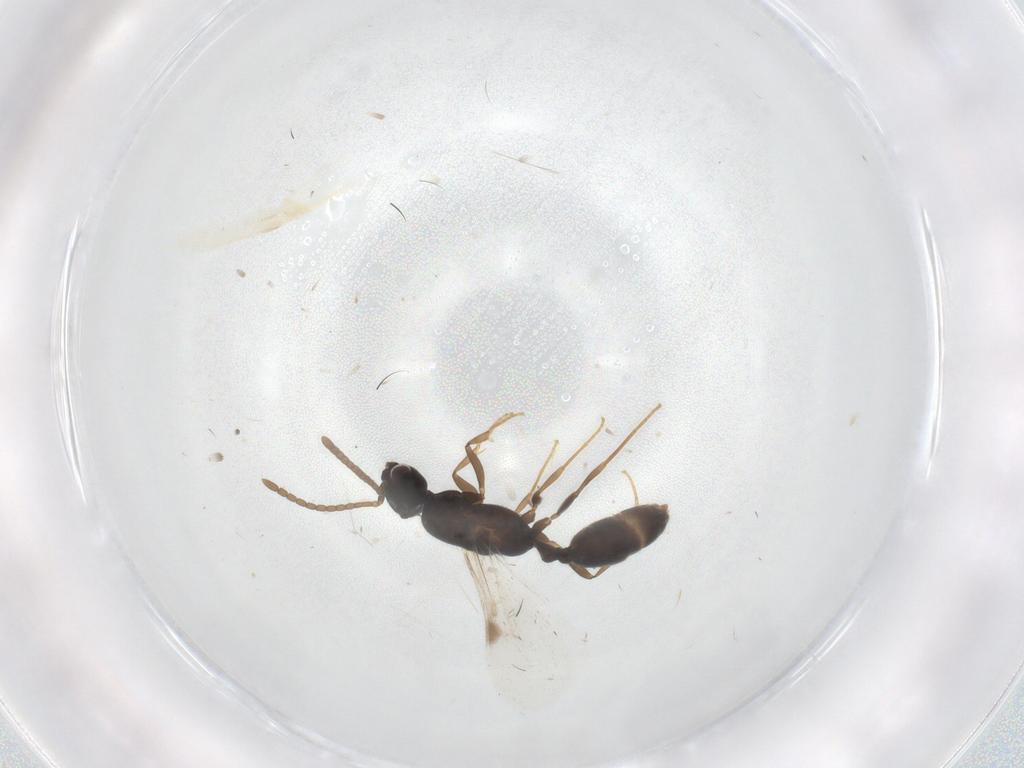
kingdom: Animalia
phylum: Arthropoda
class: Insecta
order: Hymenoptera
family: Formicidae
